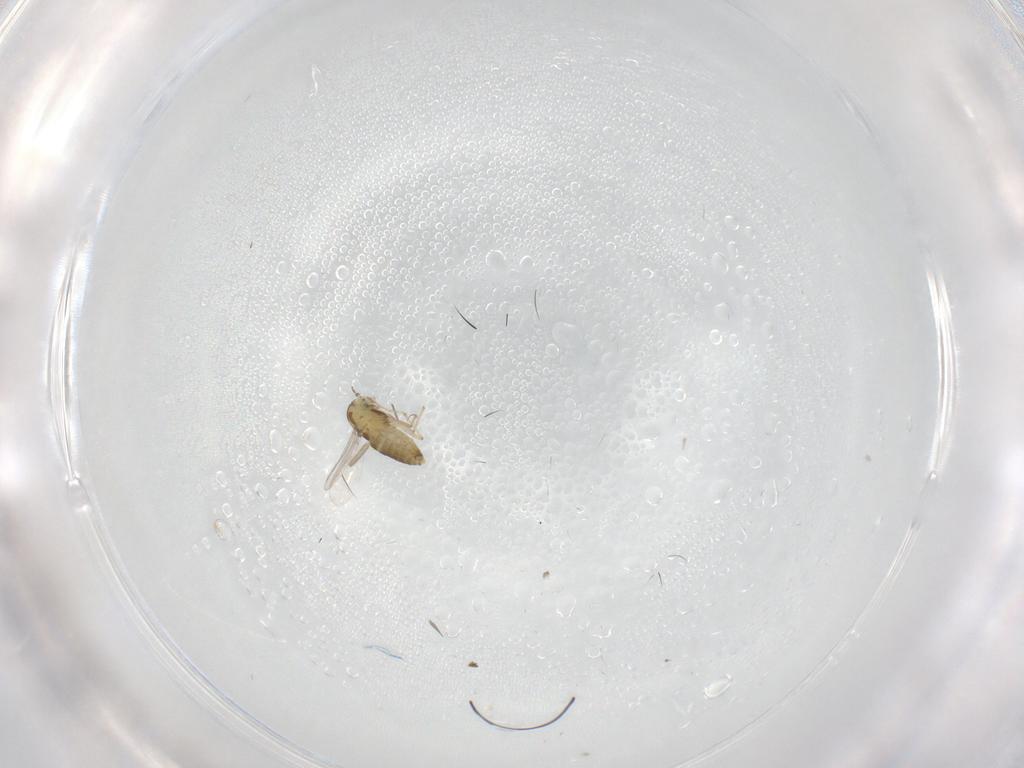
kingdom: Animalia
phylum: Arthropoda
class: Insecta
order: Diptera
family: Chironomidae
